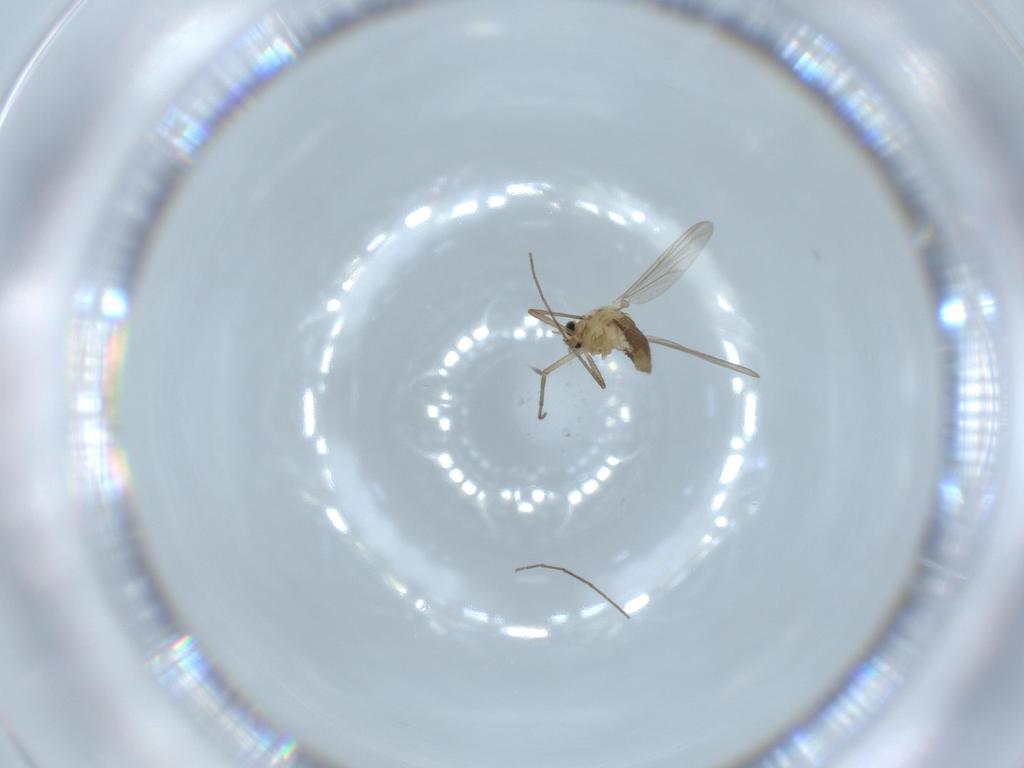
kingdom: Animalia
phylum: Arthropoda
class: Insecta
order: Diptera
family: Chironomidae
